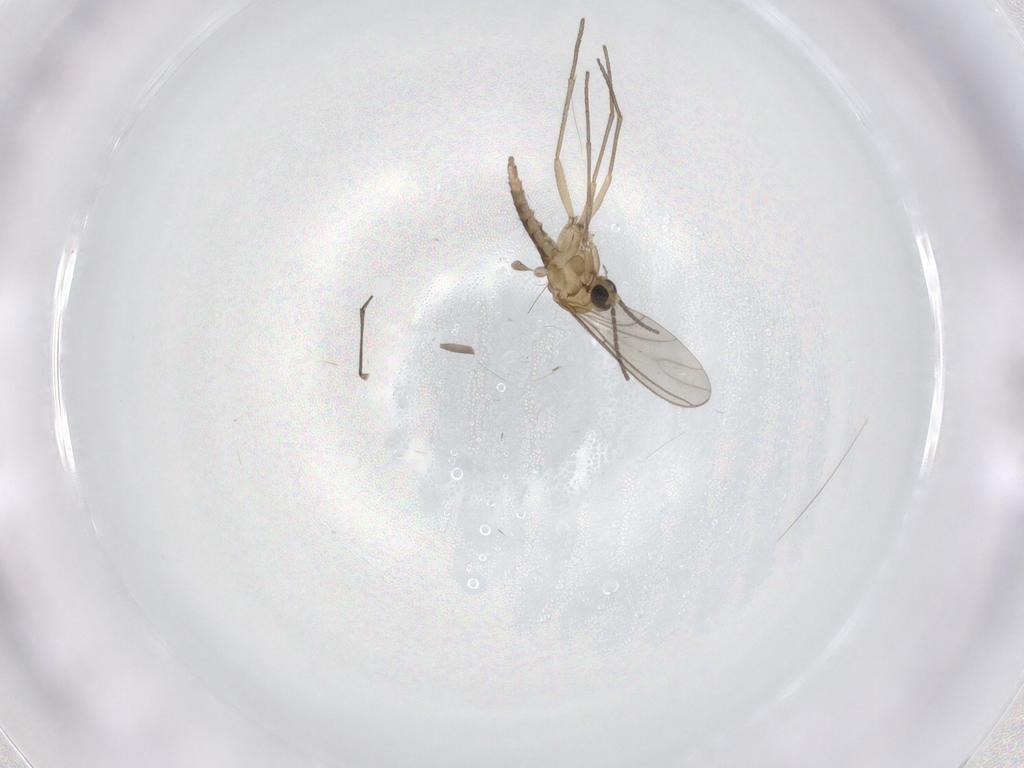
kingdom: Animalia
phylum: Arthropoda
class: Insecta
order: Diptera
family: Sciaridae
